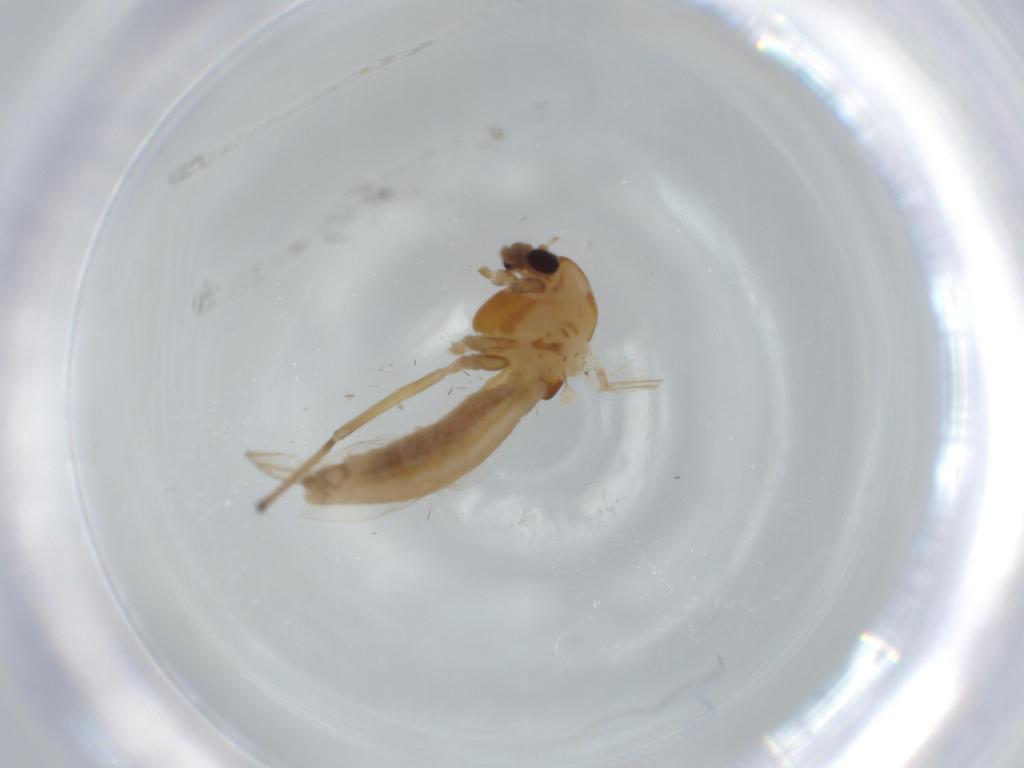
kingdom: Animalia
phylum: Arthropoda
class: Insecta
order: Diptera
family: Chironomidae
